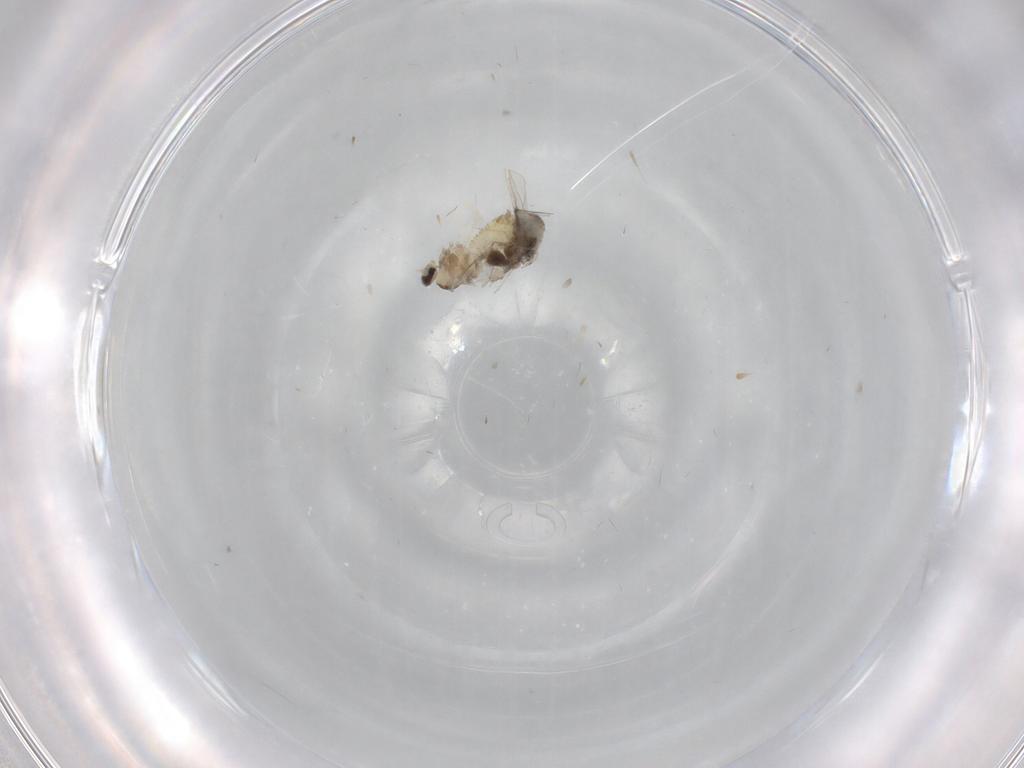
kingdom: Animalia
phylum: Arthropoda
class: Insecta
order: Diptera
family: Cecidomyiidae
